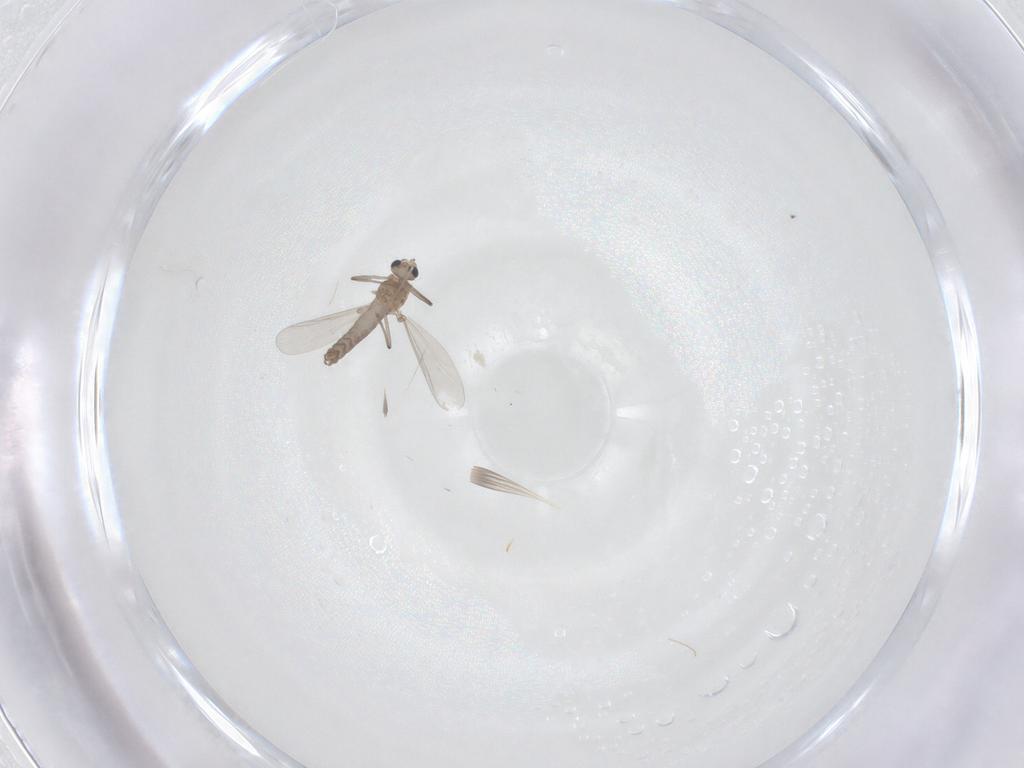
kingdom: Animalia
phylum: Arthropoda
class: Insecta
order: Diptera
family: Chironomidae
